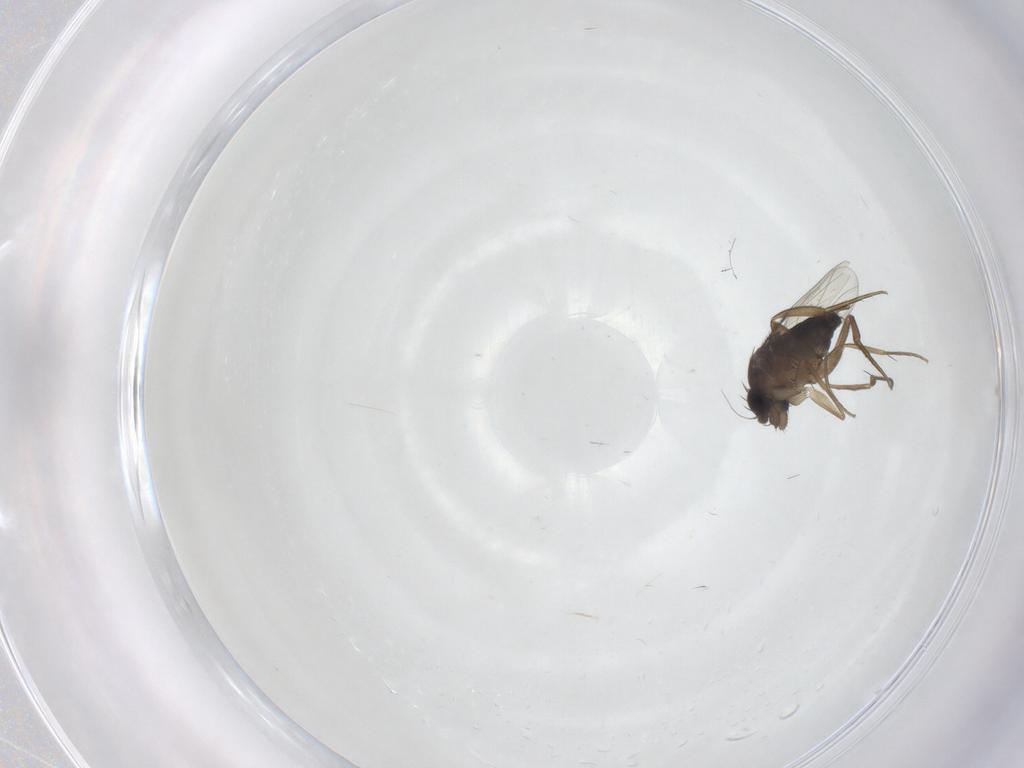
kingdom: Animalia
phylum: Arthropoda
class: Insecta
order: Diptera
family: Phoridae
